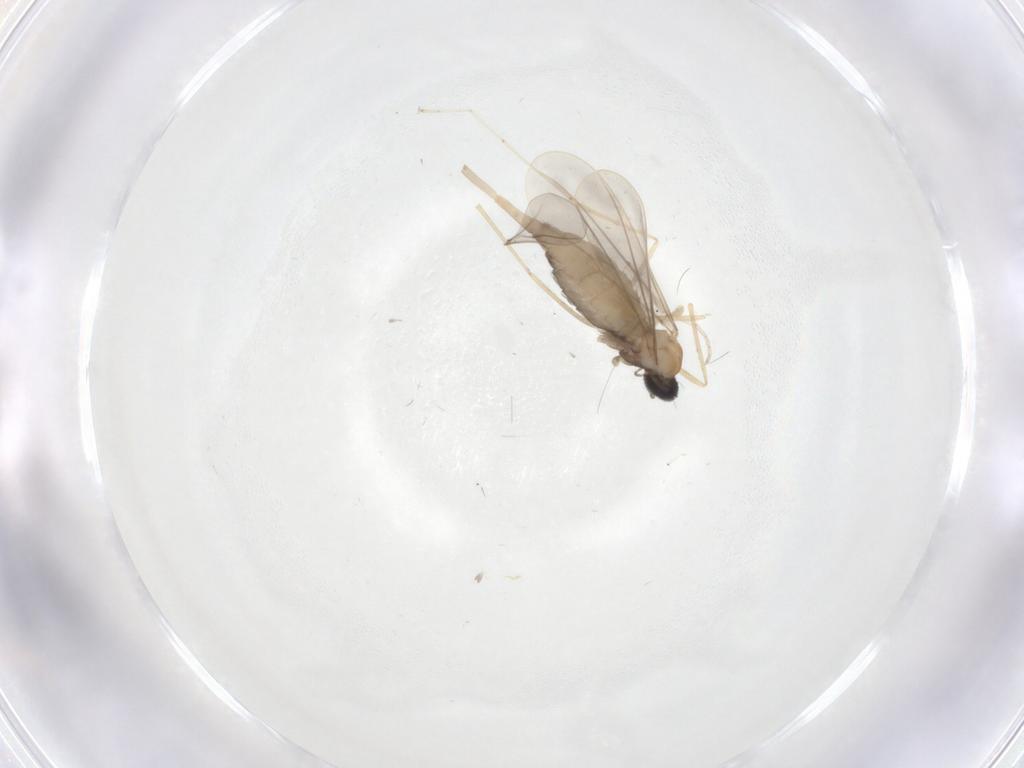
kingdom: Animalia
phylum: Arthropoda
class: Insecta
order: Diptera
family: Cecidomyiidae
